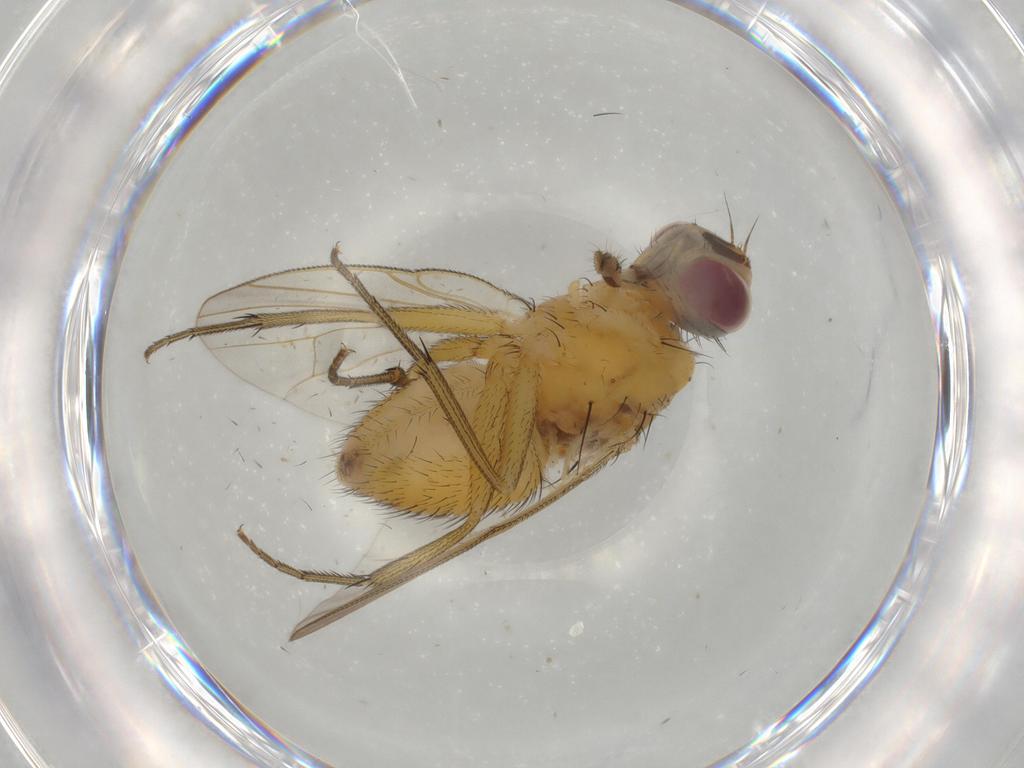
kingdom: Animalia
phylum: Arthropoda
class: Insecta
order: Diptera
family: Muscidae
